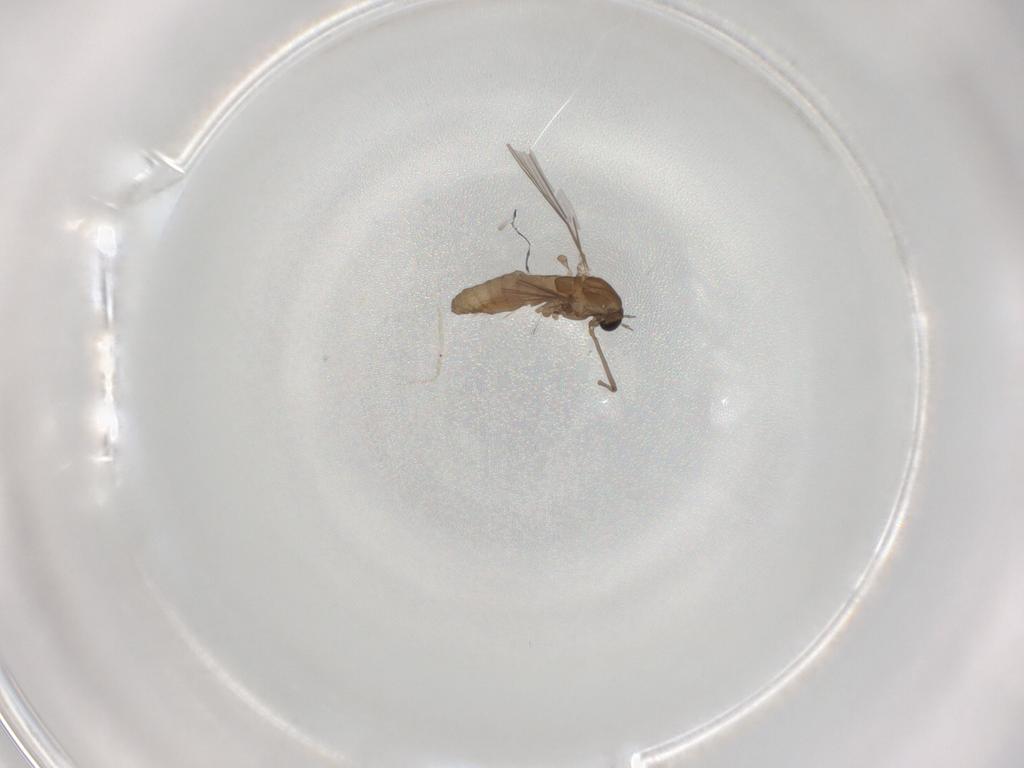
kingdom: Animalia
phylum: Arthropoda
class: Insecta
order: Diptera
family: Chironomidae
